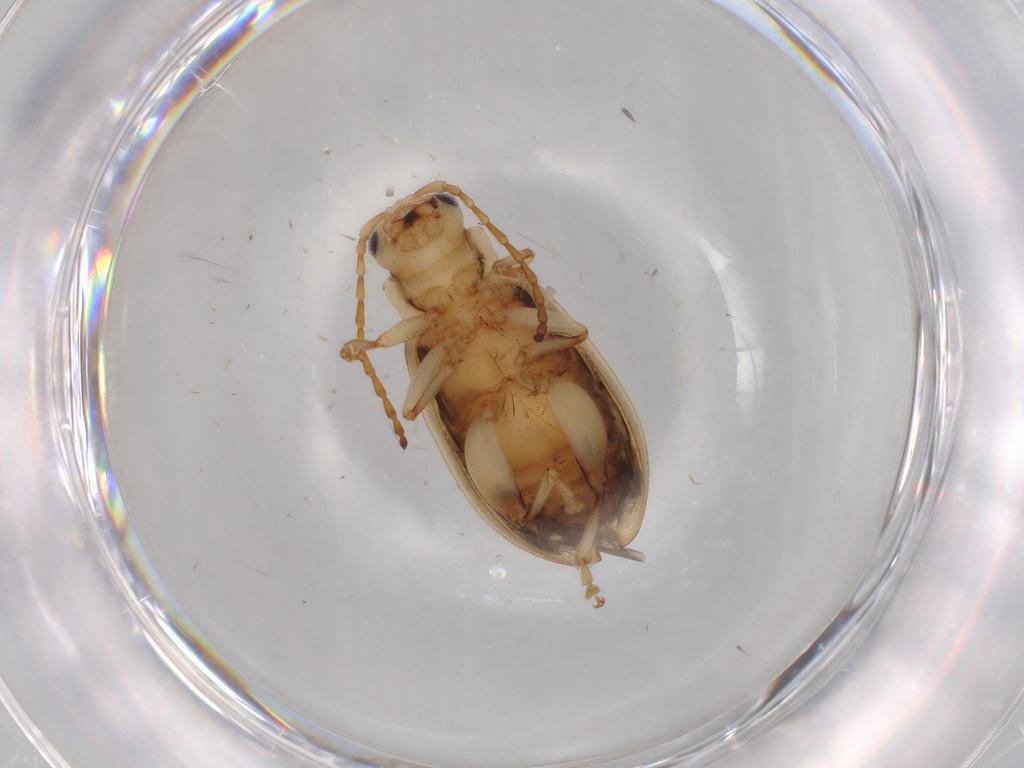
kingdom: Animalia
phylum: Arthropoda
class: Insecta
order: Coleoptera
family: Chrysomelidae
